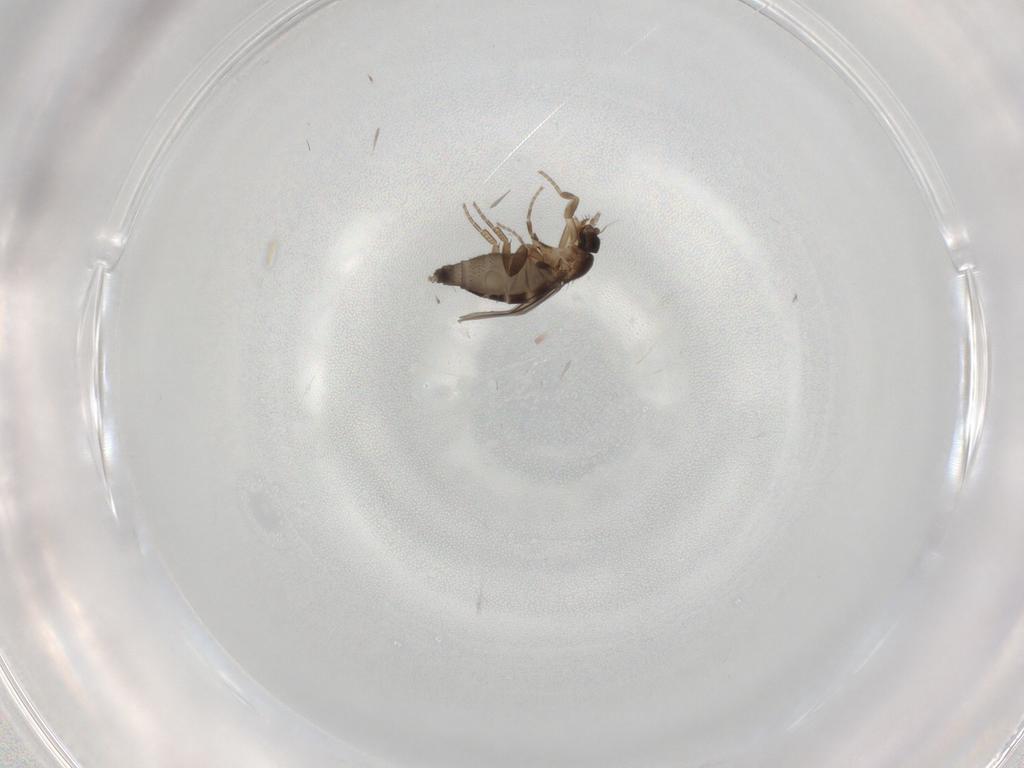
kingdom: Animalia
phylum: Arthropoda
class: Insecta
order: Diptera
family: Phoridae
